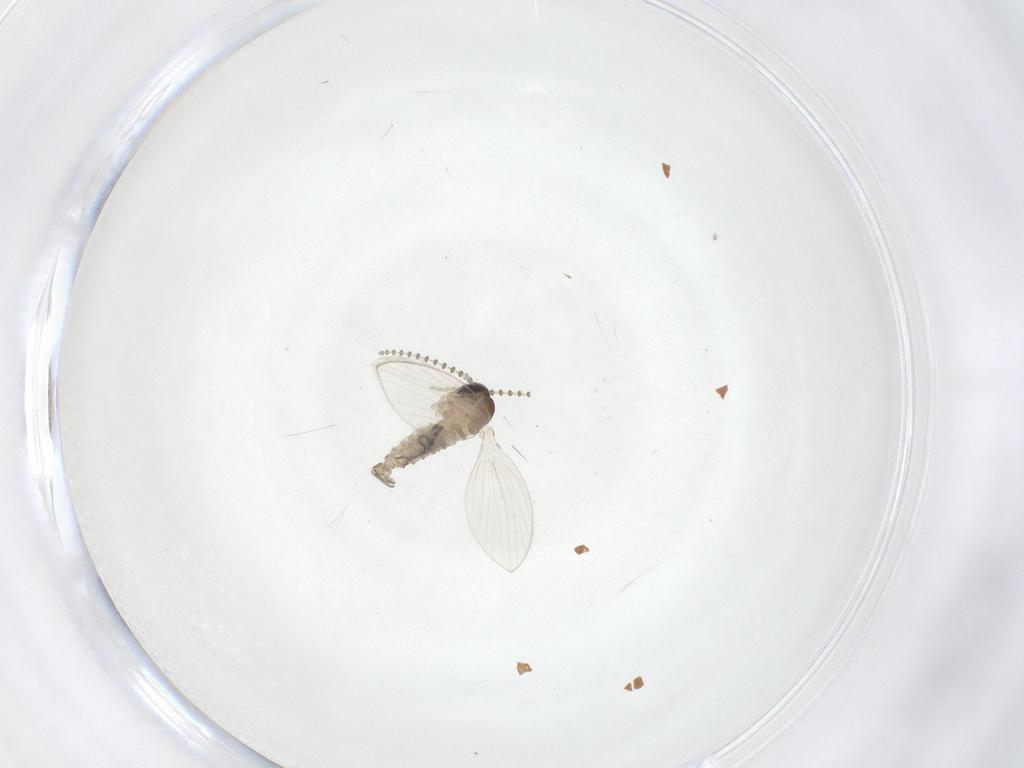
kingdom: Animalia
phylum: Arthropoda
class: Insecta
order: Diptera
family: Psychodidae
